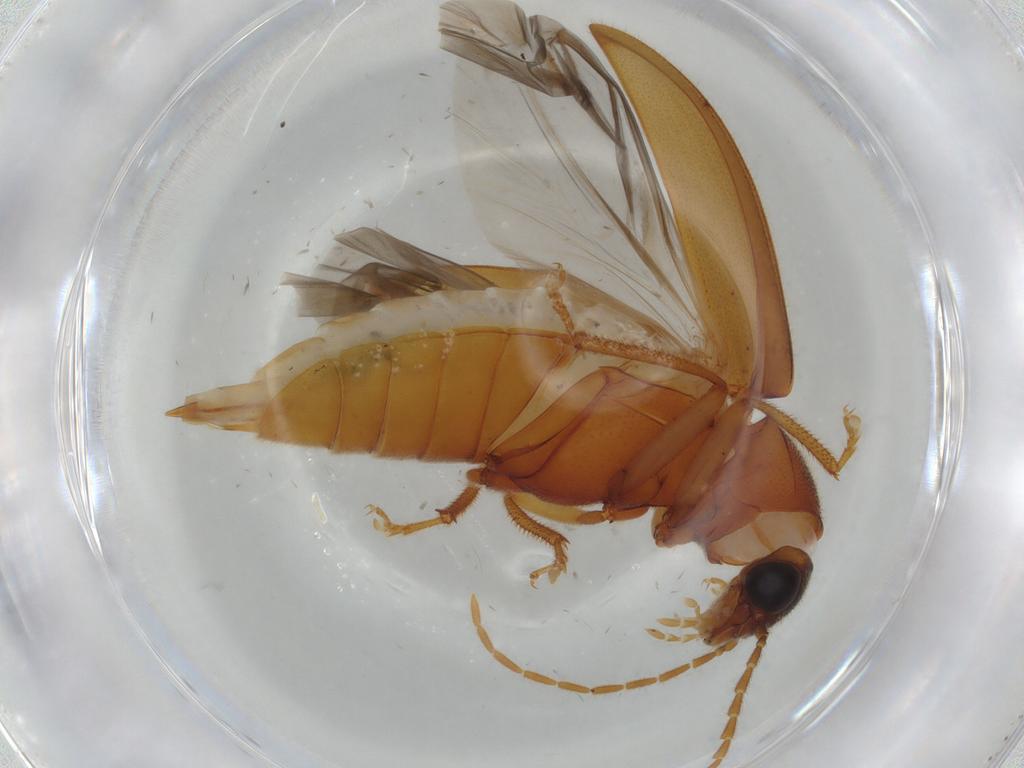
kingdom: Animalia
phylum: Arthropoda
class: Insecta
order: Coleoptera
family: Ptilodactylidae
